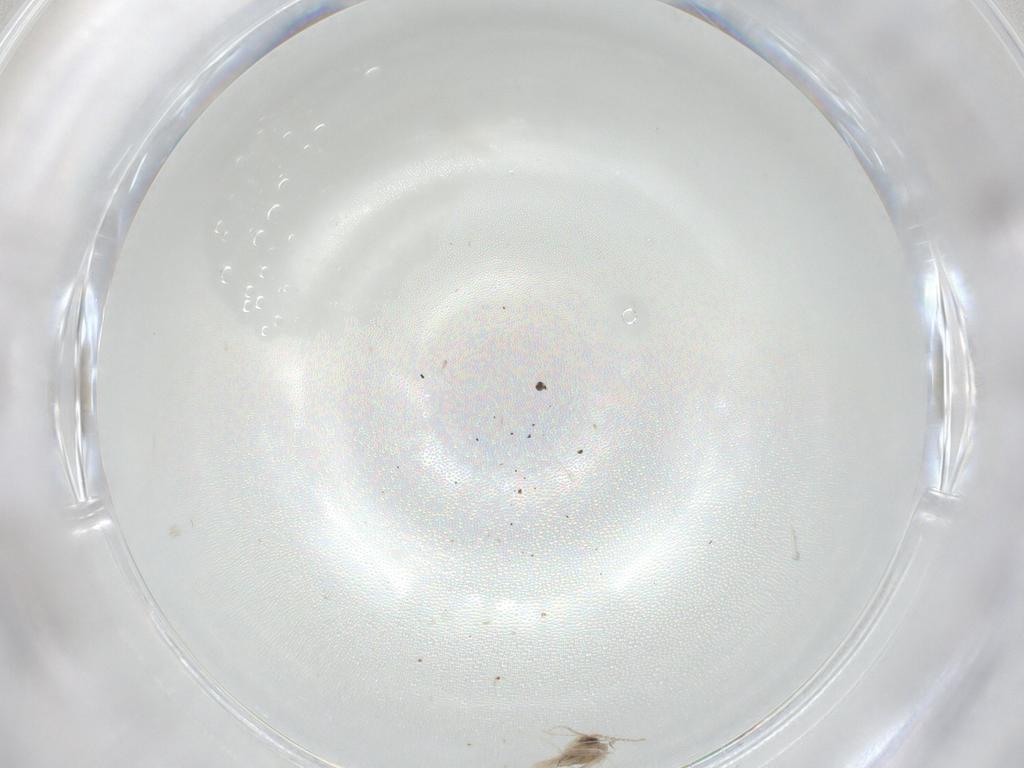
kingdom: Animalia
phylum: Arthropoda
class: Insecta
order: Diptera
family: Cecidomyiidae
